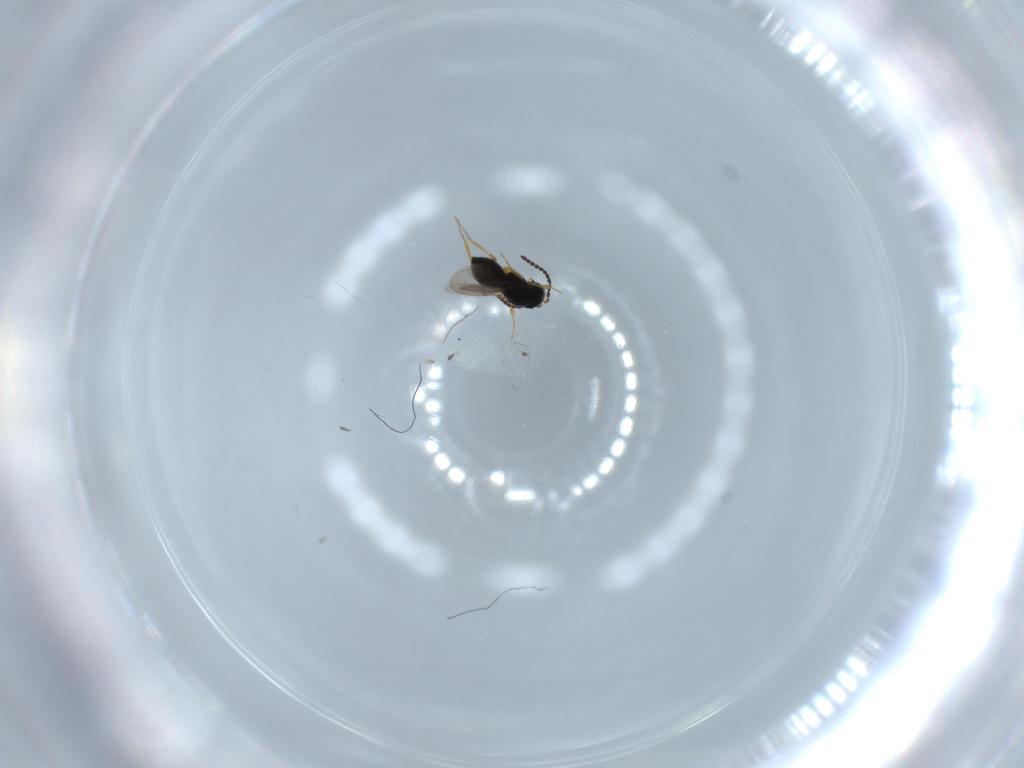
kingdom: Animalia
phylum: Arthropoda
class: Insecta
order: Hymenoptera
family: Scelionidae
